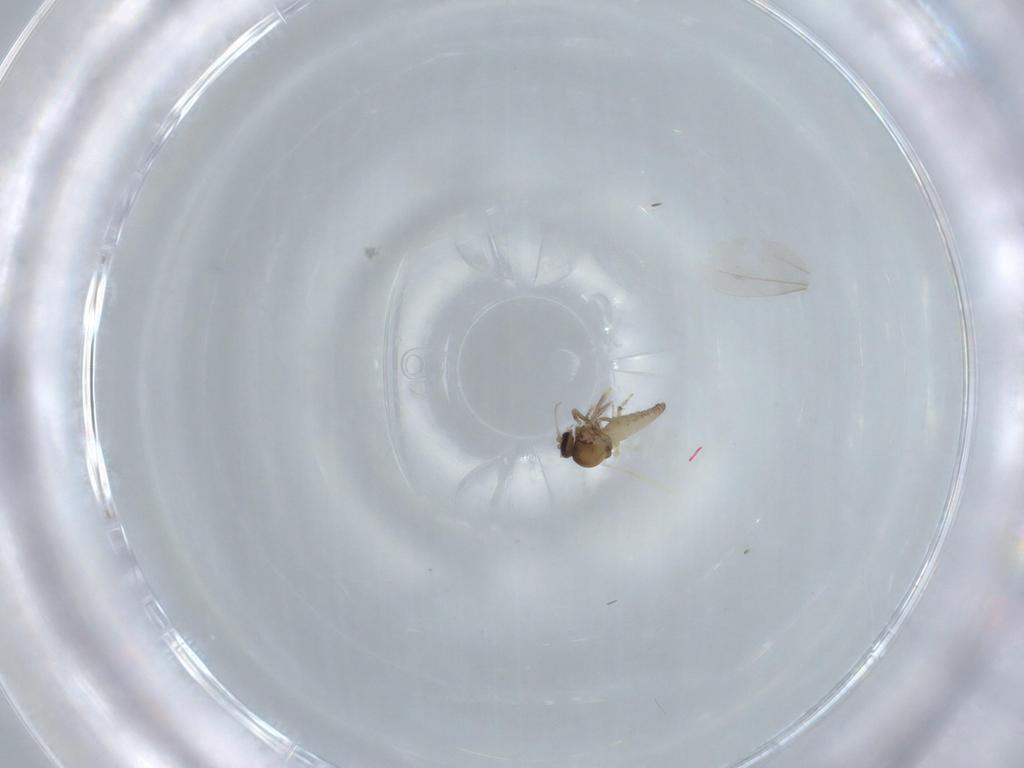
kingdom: Animalia
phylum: Arthropoda
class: Insecta
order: Diptera
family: Ceratopogonidae
